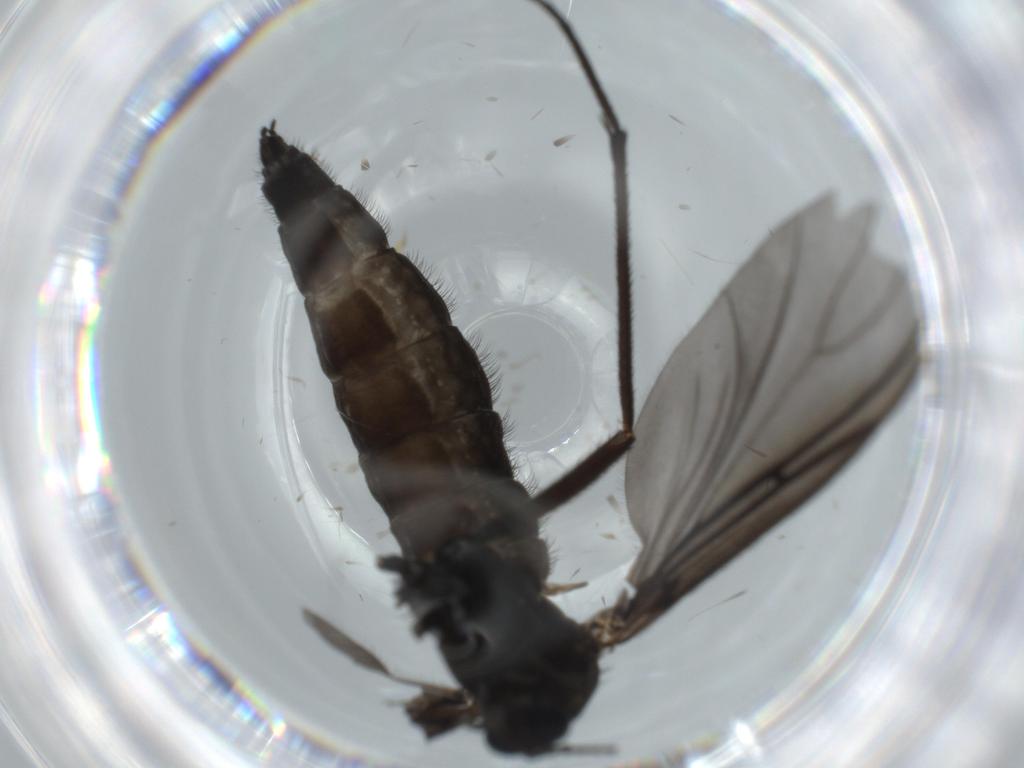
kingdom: Animalia
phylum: Arthropoda
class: Insecta
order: Diptera
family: Sciaridae
